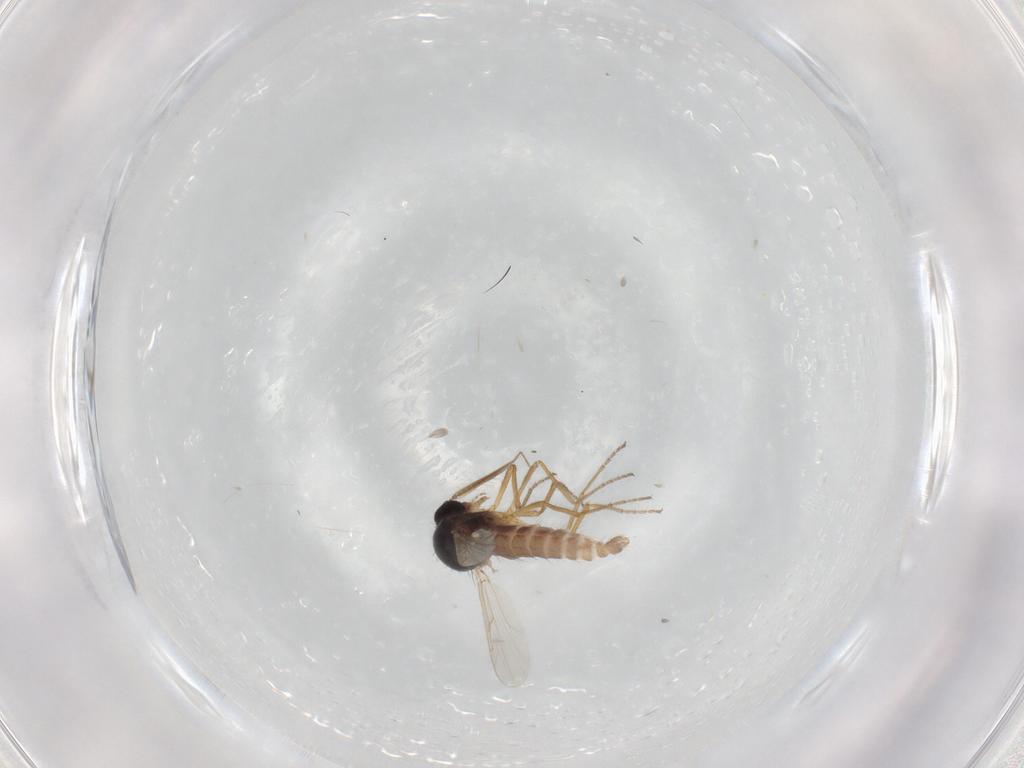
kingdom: Animalia
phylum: Arthropoda
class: Insecta
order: Diptera
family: Ceratopogonidae
